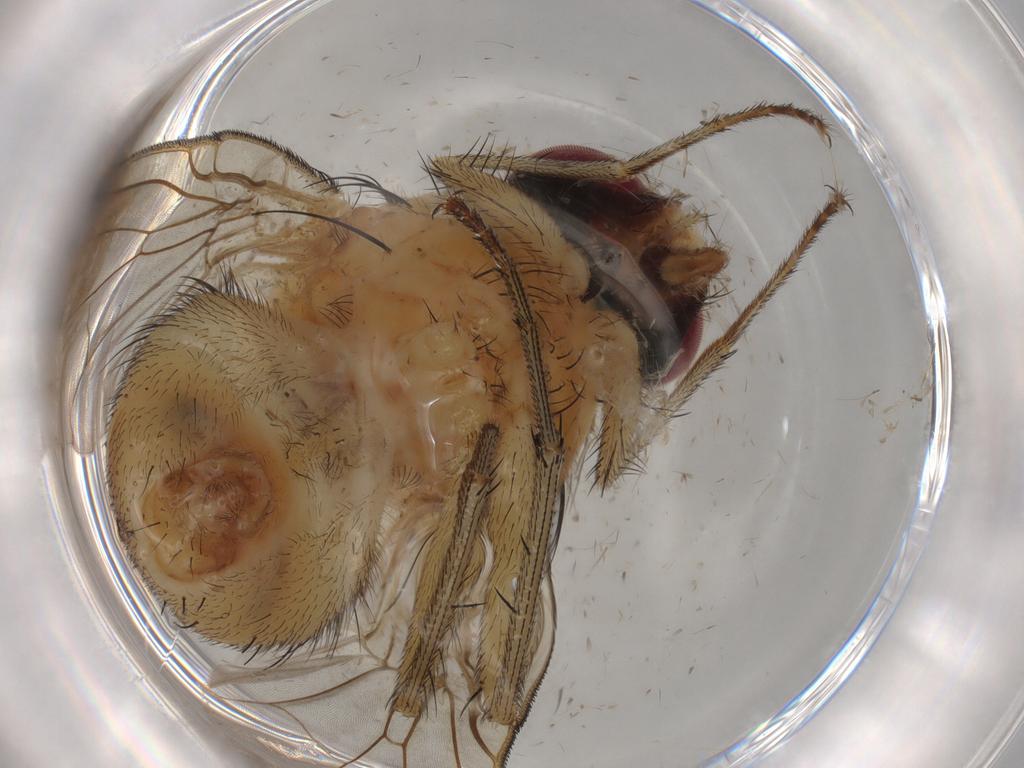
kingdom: Animalia
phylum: Arthropoda
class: Insecta
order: Diptera
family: Muscidae
